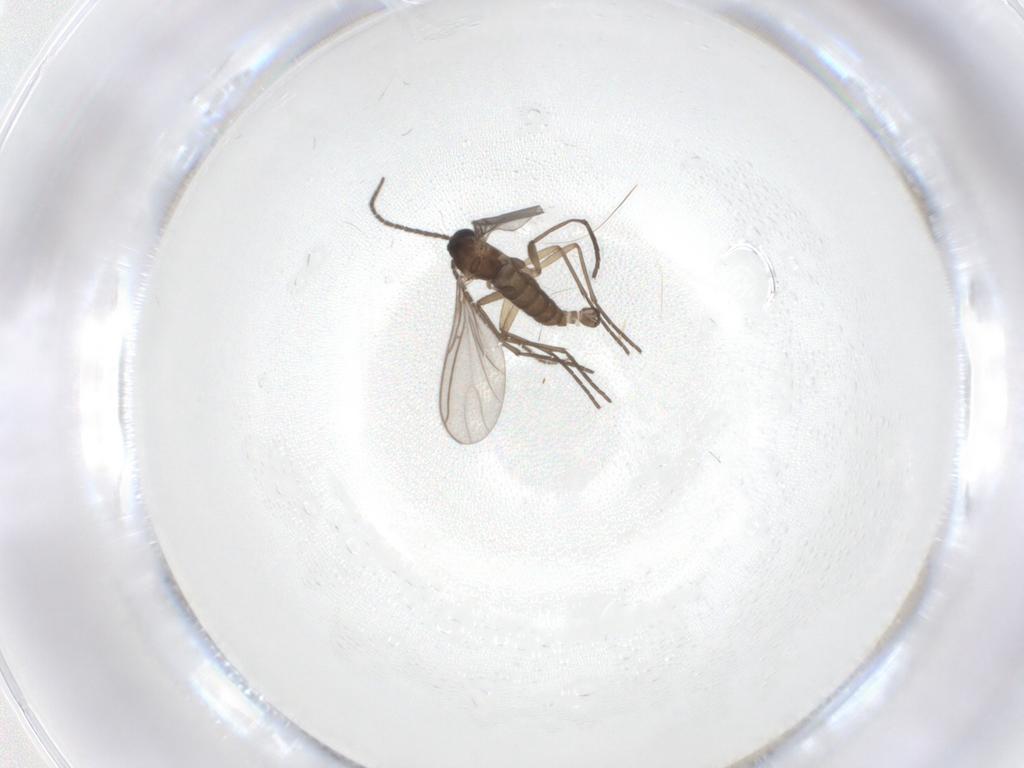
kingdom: Animalia
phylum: Arthropoda
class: Insecta
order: Diptera
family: Sciaridae
